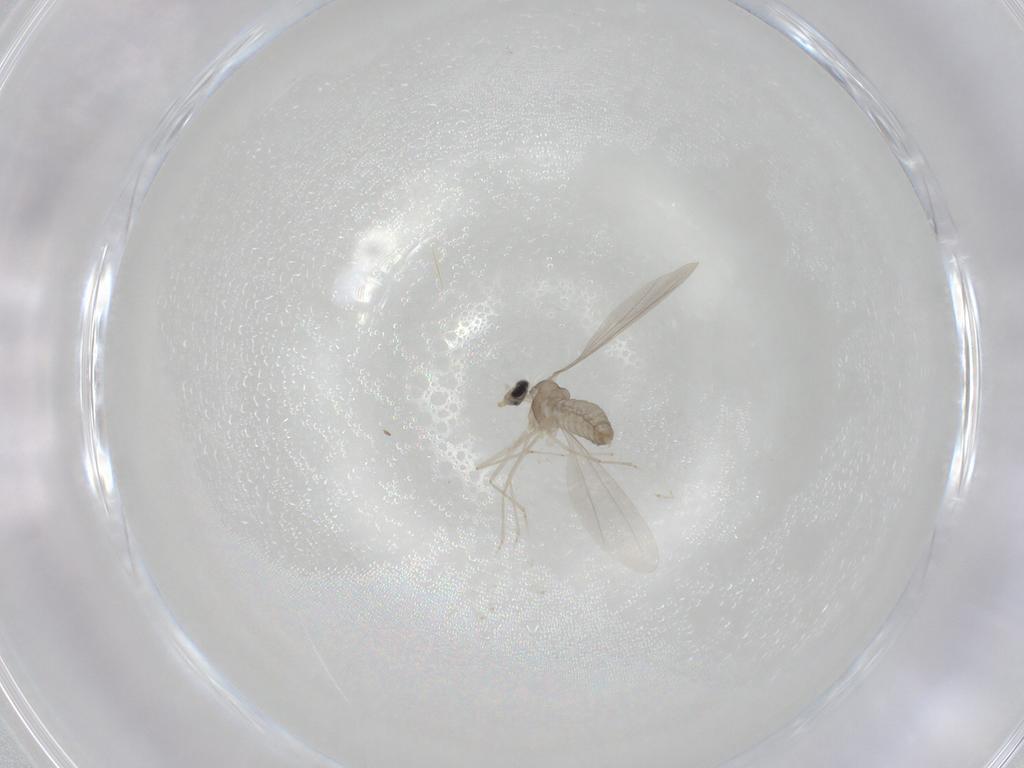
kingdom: Animalia
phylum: Arthropoda
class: Insecta
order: Diptera
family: Cecidomyiidae
